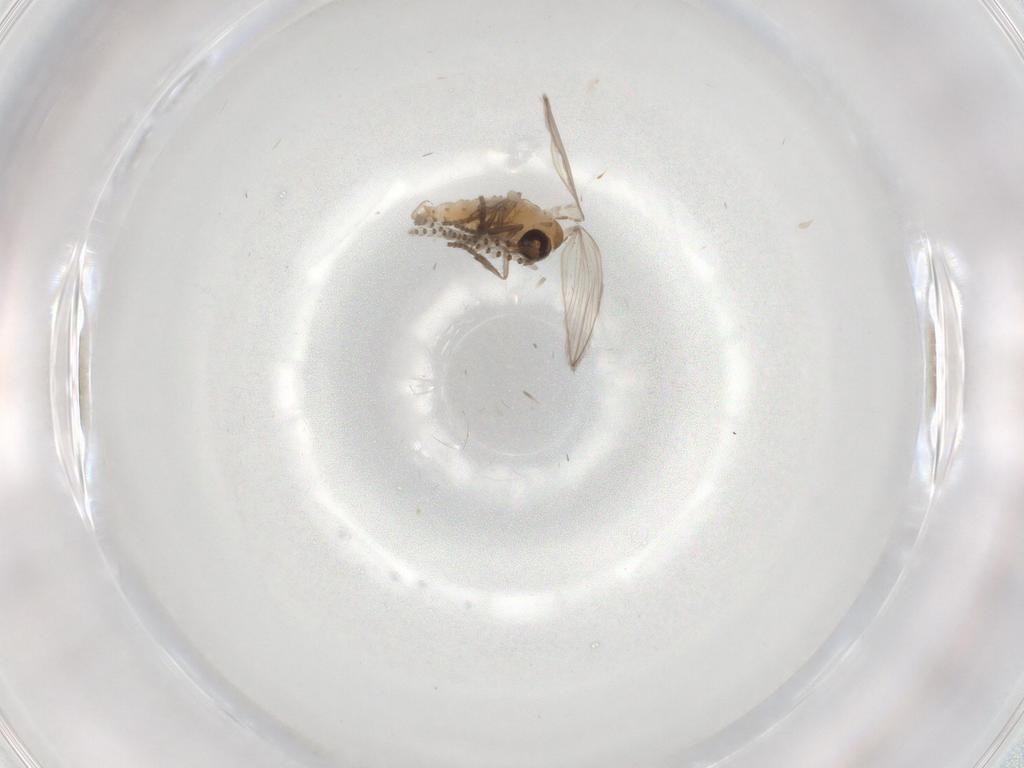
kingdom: Animalia
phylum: Arthropoda
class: Insecta
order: Diptera
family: Psychodidae
